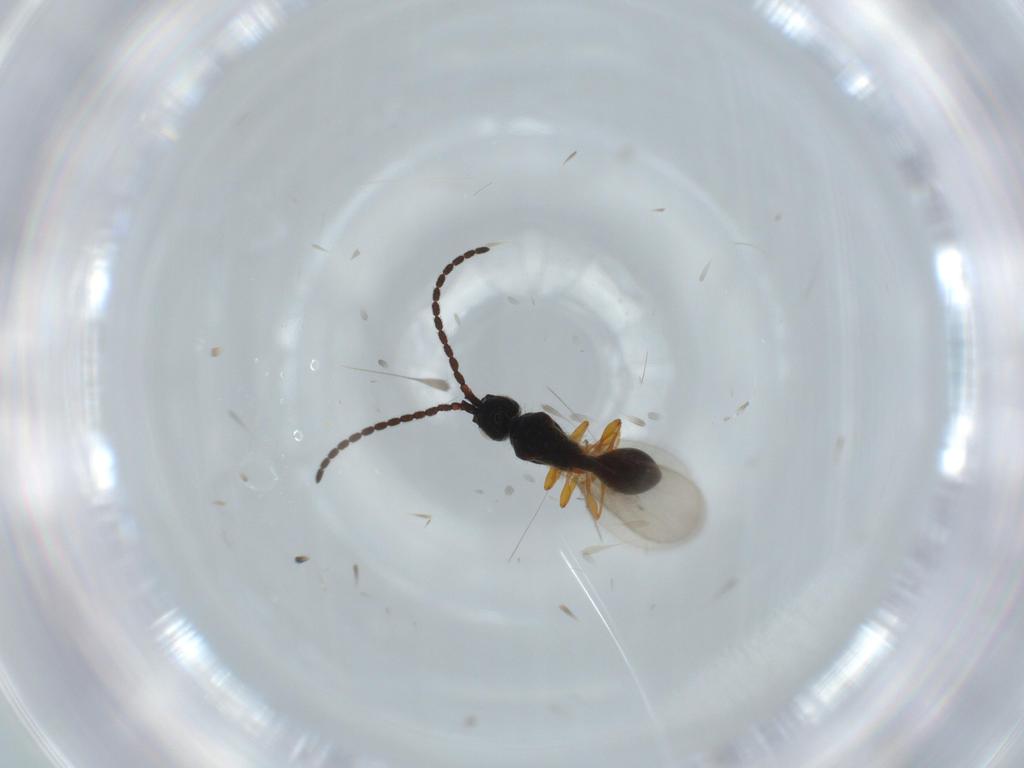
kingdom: Animalia
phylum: Arthropoda
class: Insecta
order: Hymenoptera
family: Diapriidae
